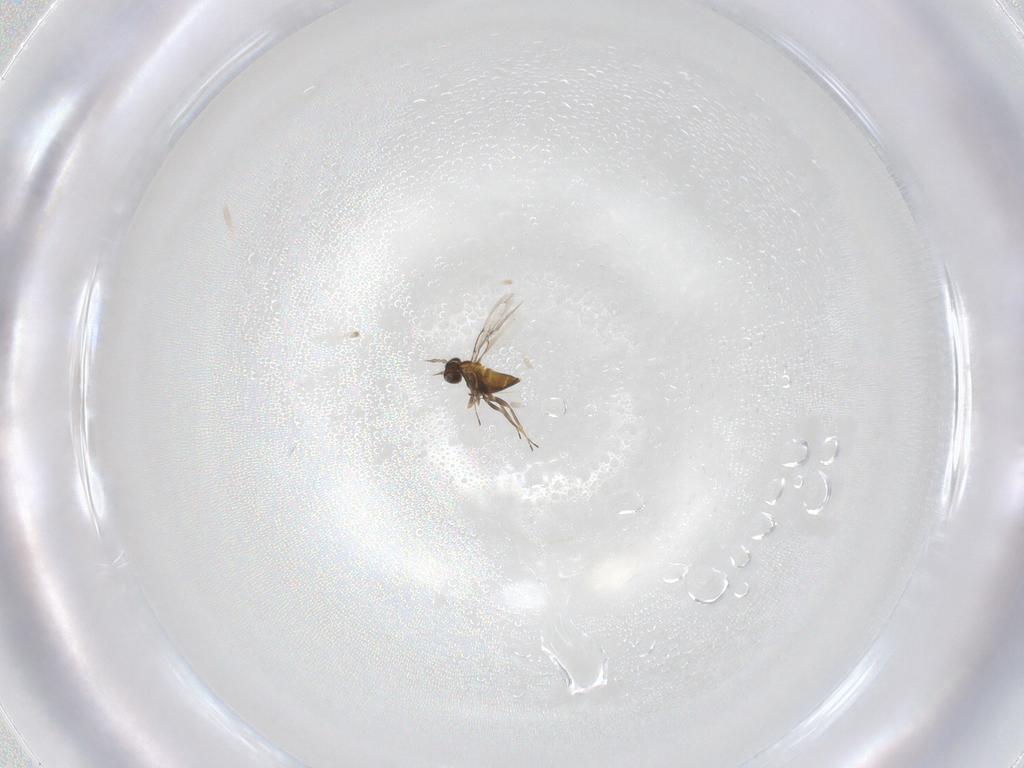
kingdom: Animalia
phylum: Arthropoda
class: Insecta
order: Hymenoptera
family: Trichogrammatidae
